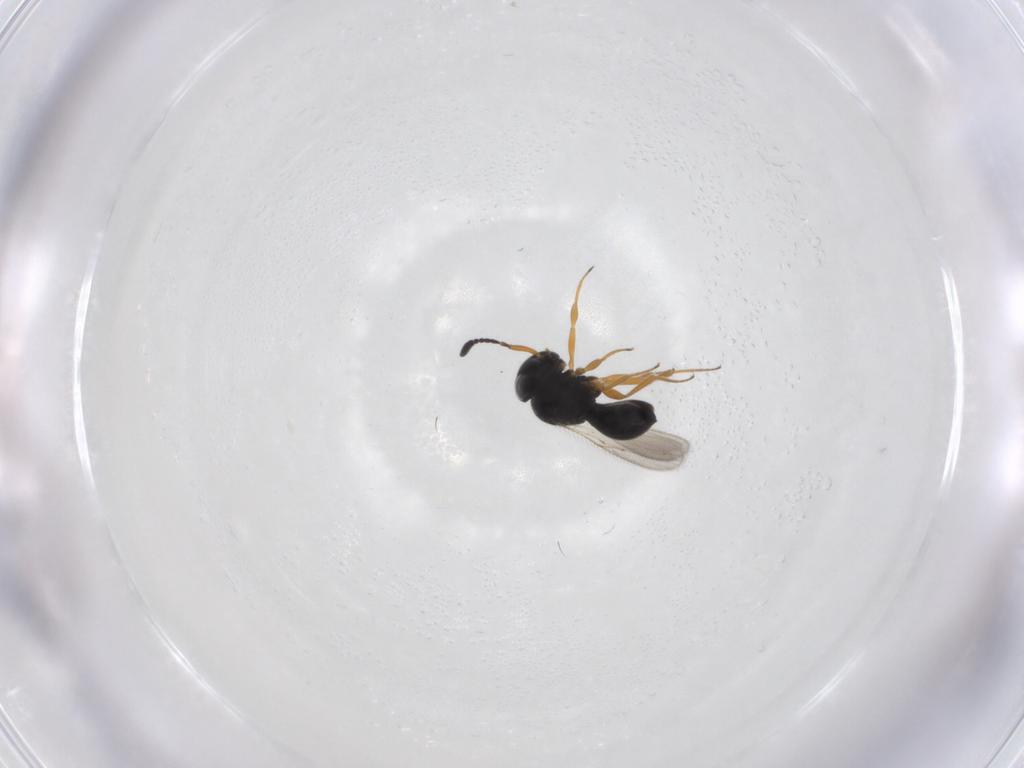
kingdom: Animalia
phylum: Arthropoda
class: Insecta
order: Hymenoptera
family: Scelionidae
